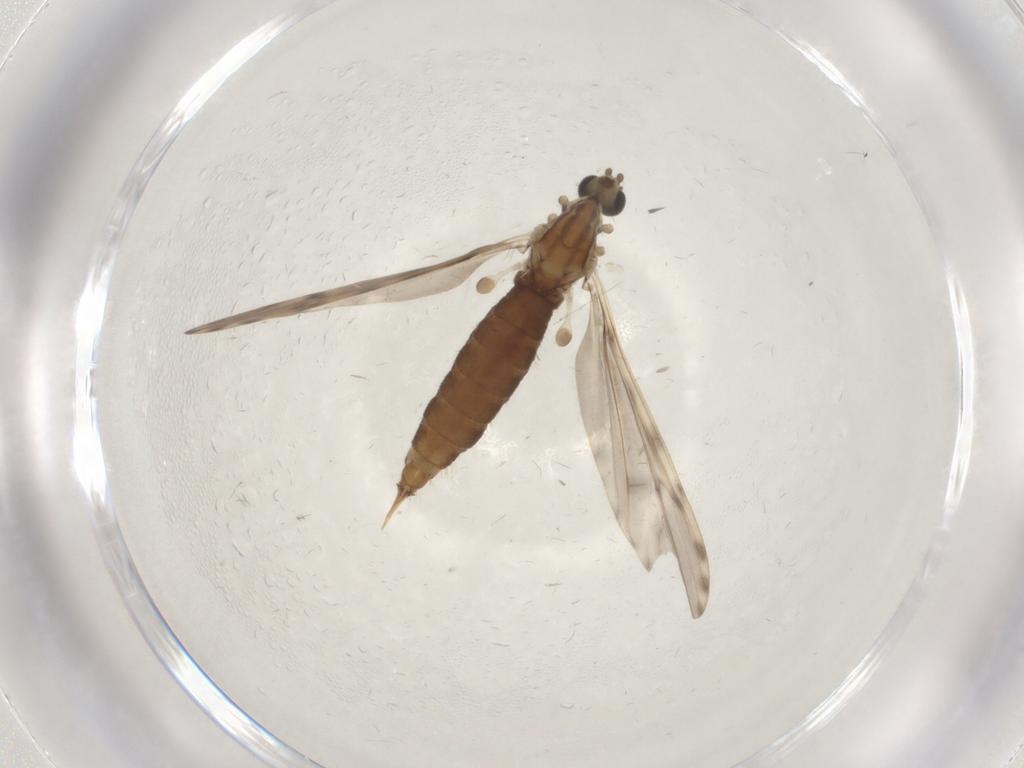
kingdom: Animalia
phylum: Arthropoda
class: Insecta
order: Diptera
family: Limoniidae
